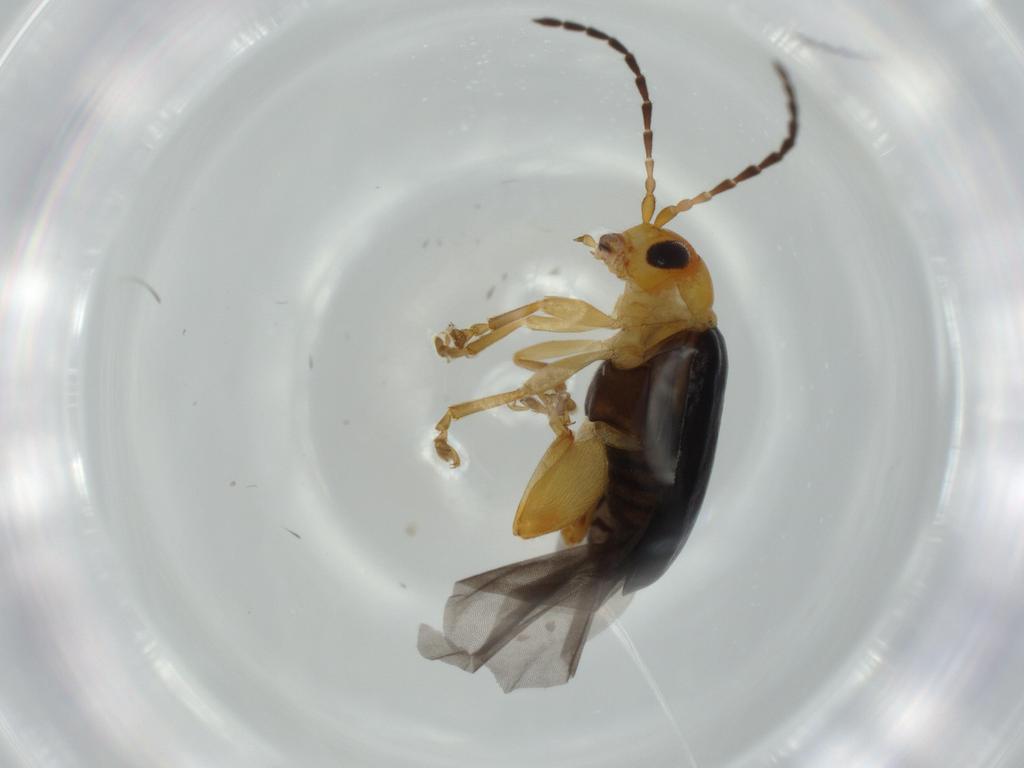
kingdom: Animalia
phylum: Arthropoda
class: Insecta
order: Coleoptera
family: Chrysomelidae
